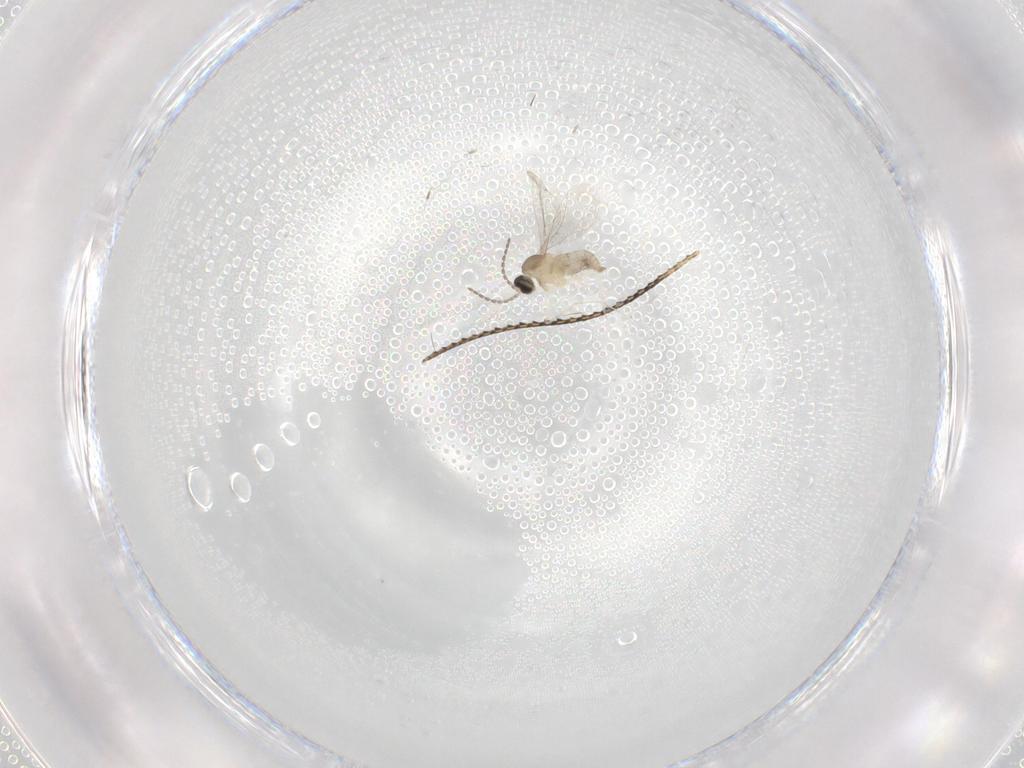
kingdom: Animalia
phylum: Arthropoda
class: Insecta
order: Diptera
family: Cecidomyiidae
